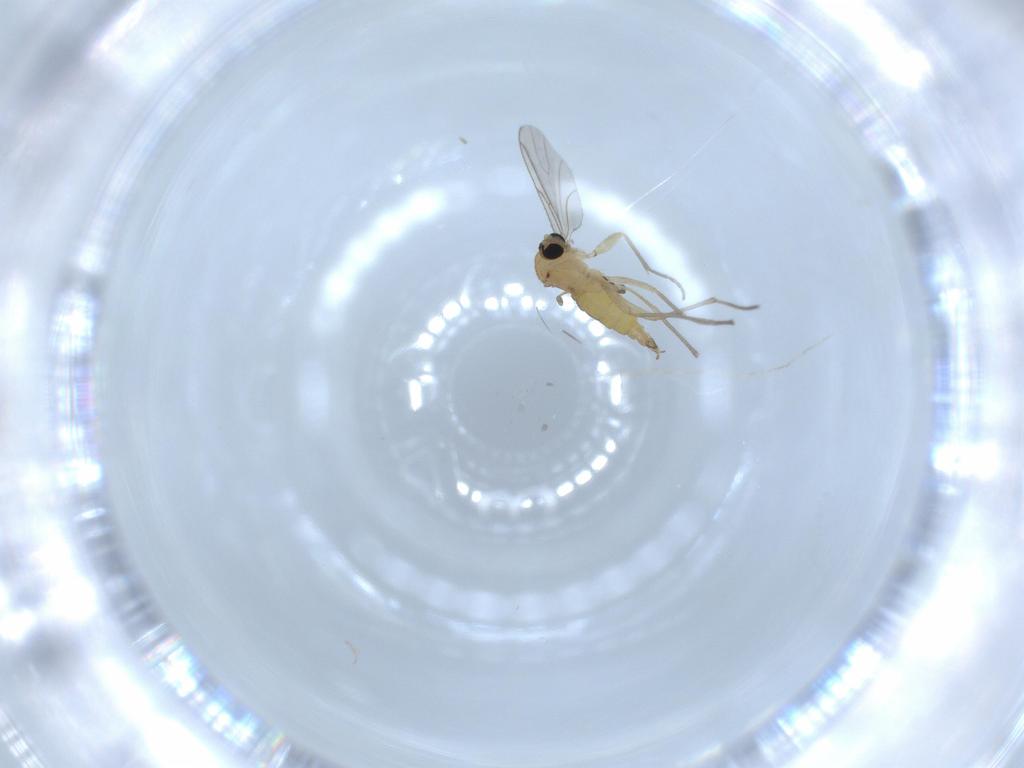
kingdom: Animalia
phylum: Arthropoda
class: Insecta
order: Diptera
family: Sciaridae
